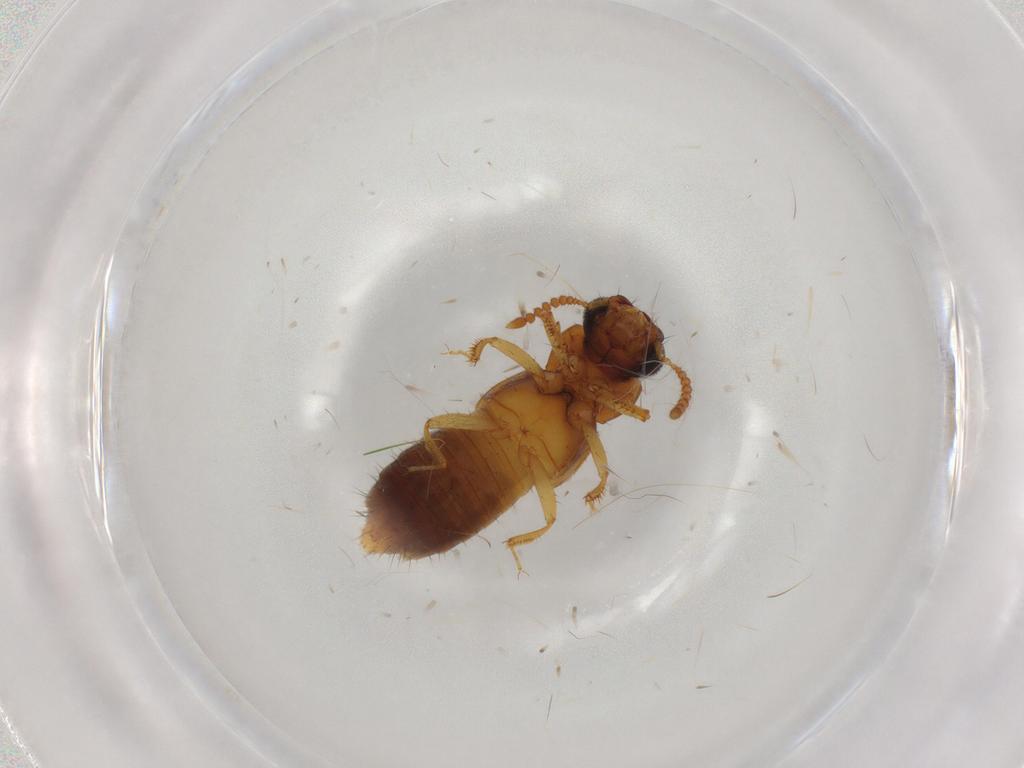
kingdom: Animalia
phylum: Arthropoda
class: Insecta
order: Coleoptera
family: Staphylinidae
